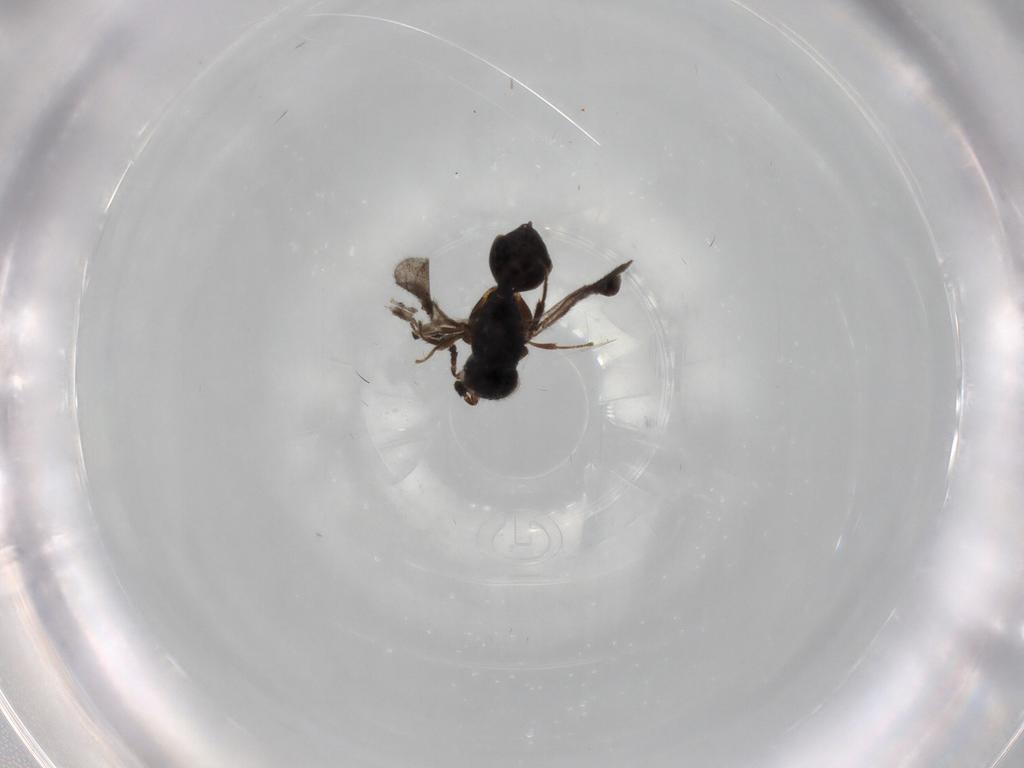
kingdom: Animalia
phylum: Arthropoda
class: Insecta
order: Hymenoptera
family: Megaspilidae
